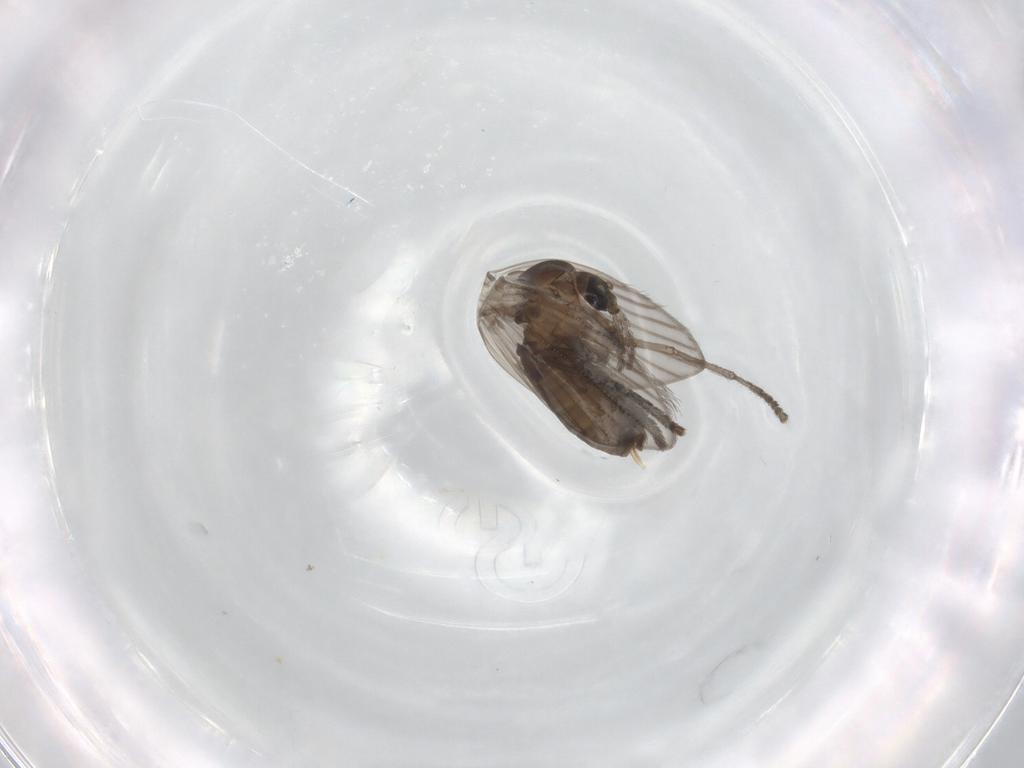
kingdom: Animalia
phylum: Arthropoda
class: Insecta
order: Diptera
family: Psychodidae
